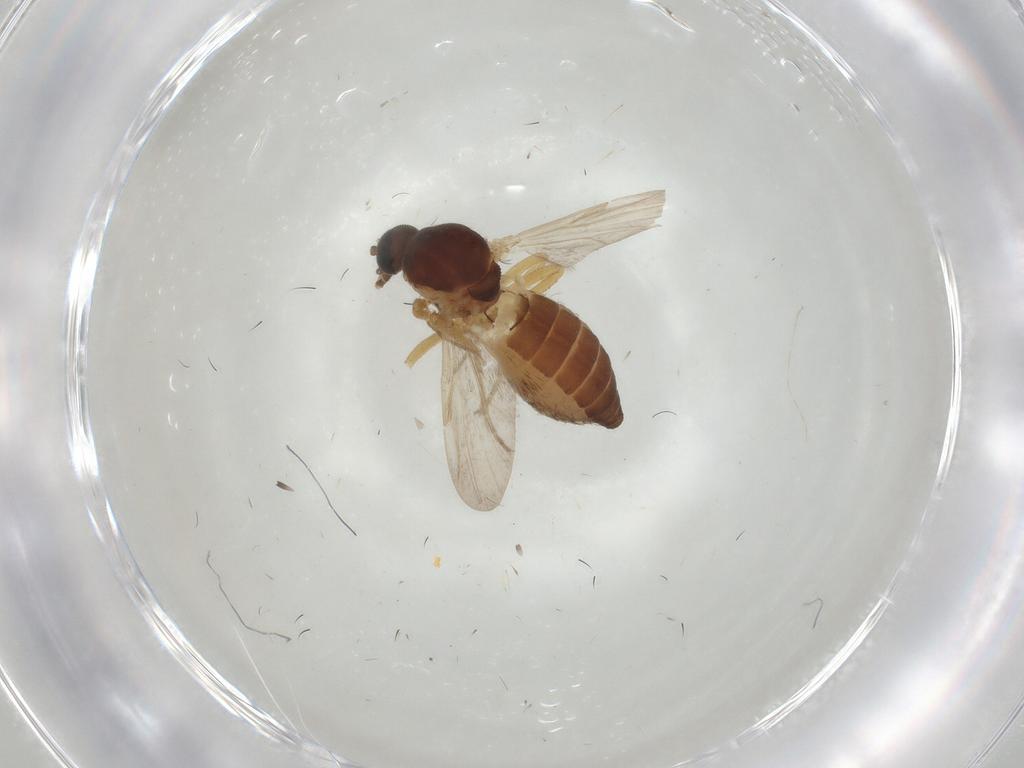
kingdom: Animalia
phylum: Arthropoda
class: Insecta
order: Diptera
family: Ceratopogonidae
